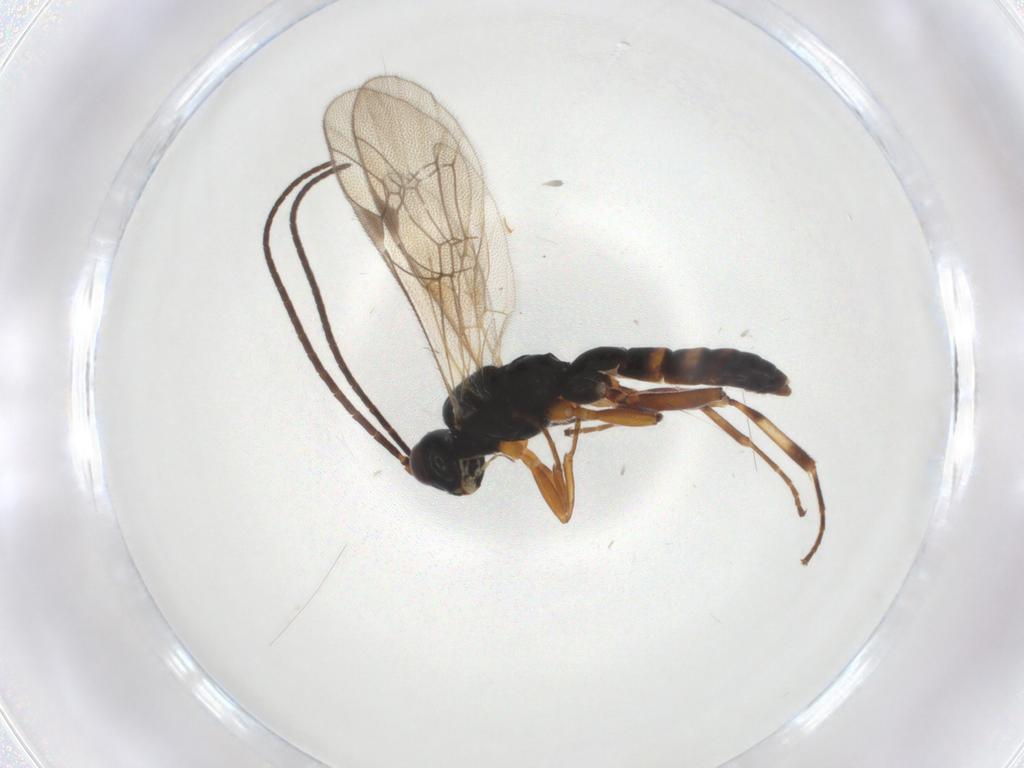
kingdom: Animalia
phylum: Arthropoda
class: Insecta
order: Hymenoptera
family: Ichneumonidae
